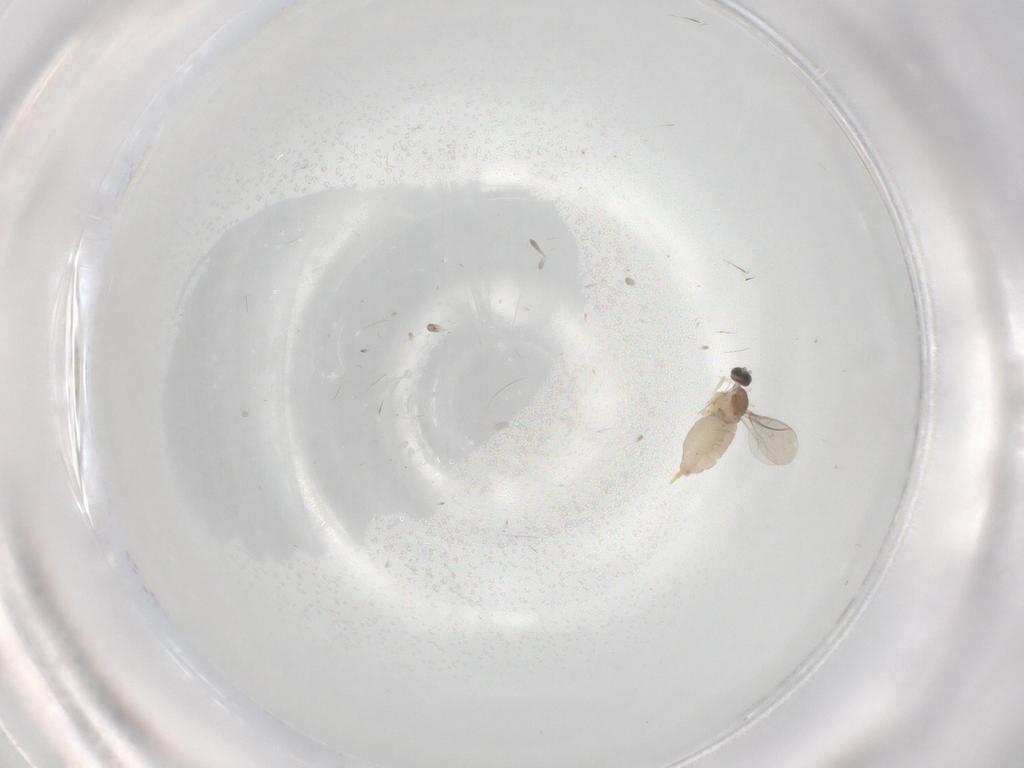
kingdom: Animalia
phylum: Arthropoda
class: Insecta
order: Diptera
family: Cecidomyiidae
